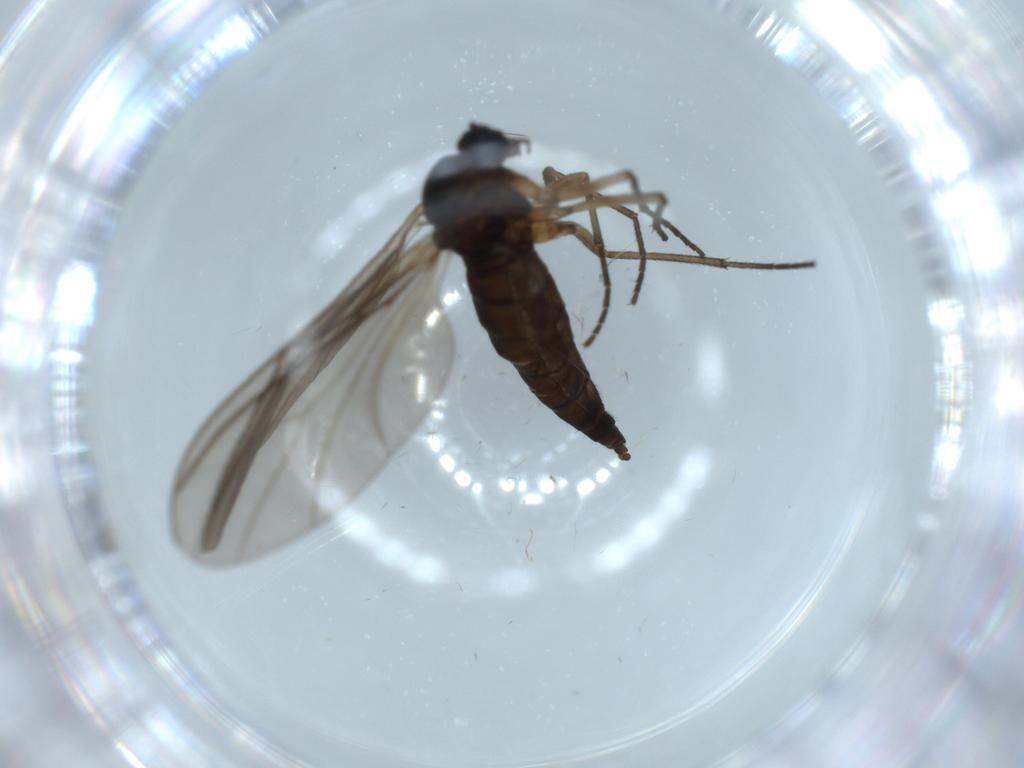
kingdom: Animalia
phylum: Arthropoda
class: Insecta
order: Diptera
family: Sciaridae
